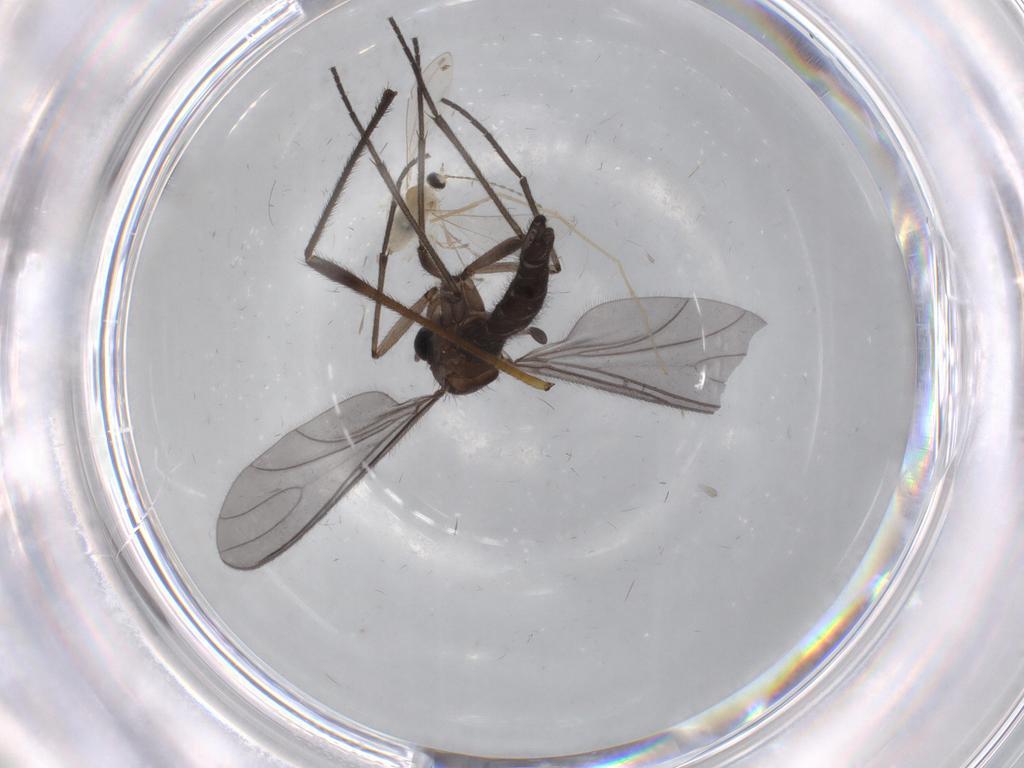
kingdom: Animalia
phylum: Arthropoda
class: Insecta
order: Diptera
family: Sciaridae
